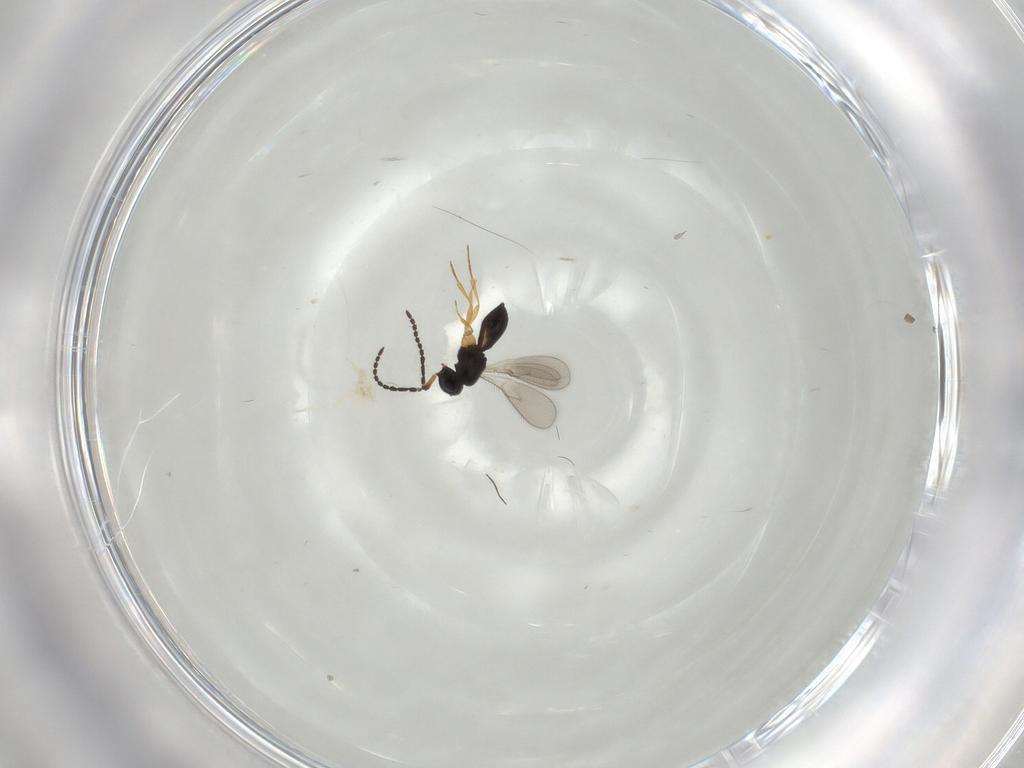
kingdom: Animalia
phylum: Arthropoda
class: Insecta
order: Hymenoptera
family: Scelionidae
